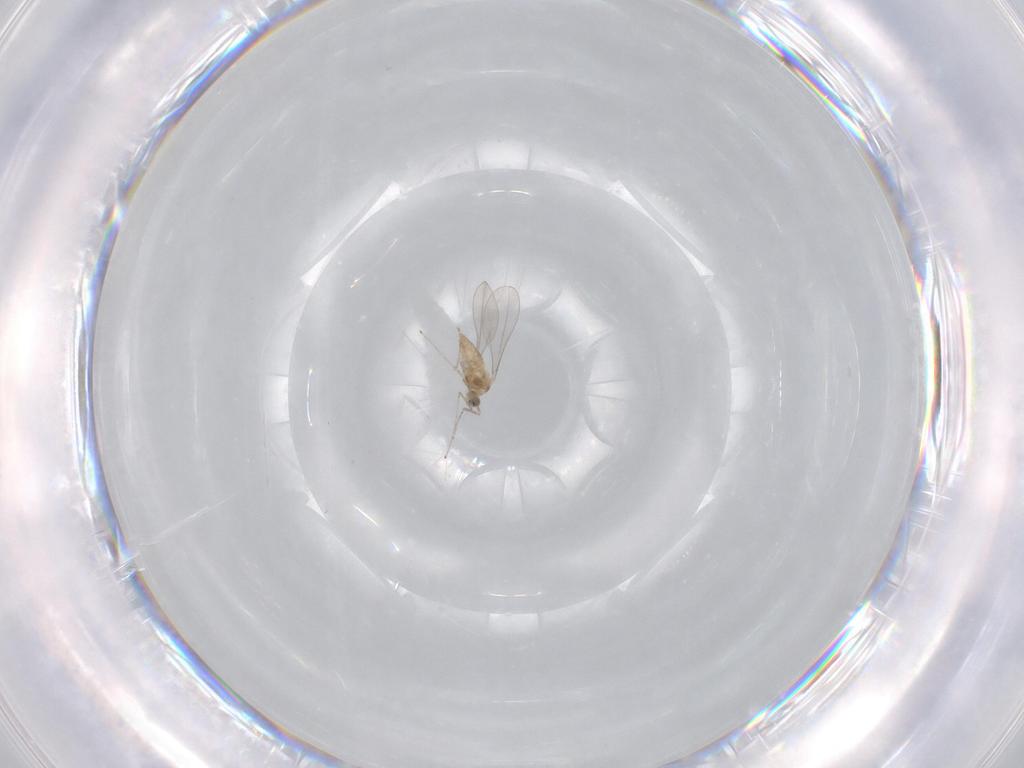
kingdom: Animalia
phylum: Arthropoda
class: Insecta
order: Diptera
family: Cecidomyiidae
